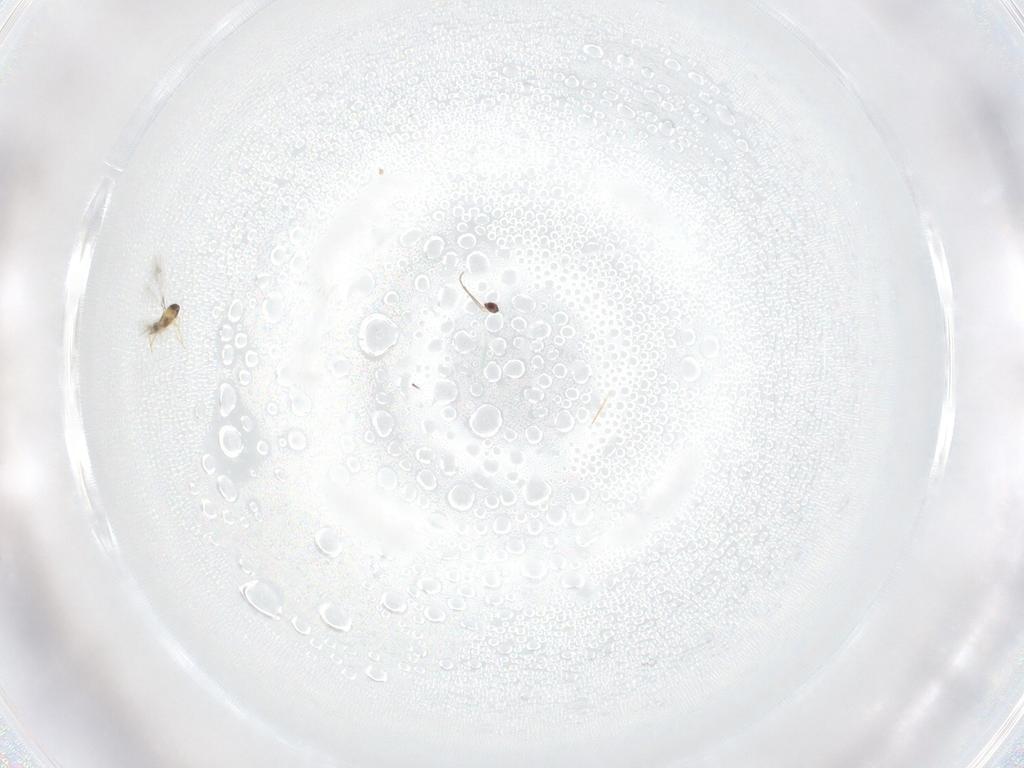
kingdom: Animalia
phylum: Arthropoda
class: Insecta
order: Hymenoptera
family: Mymaridae
